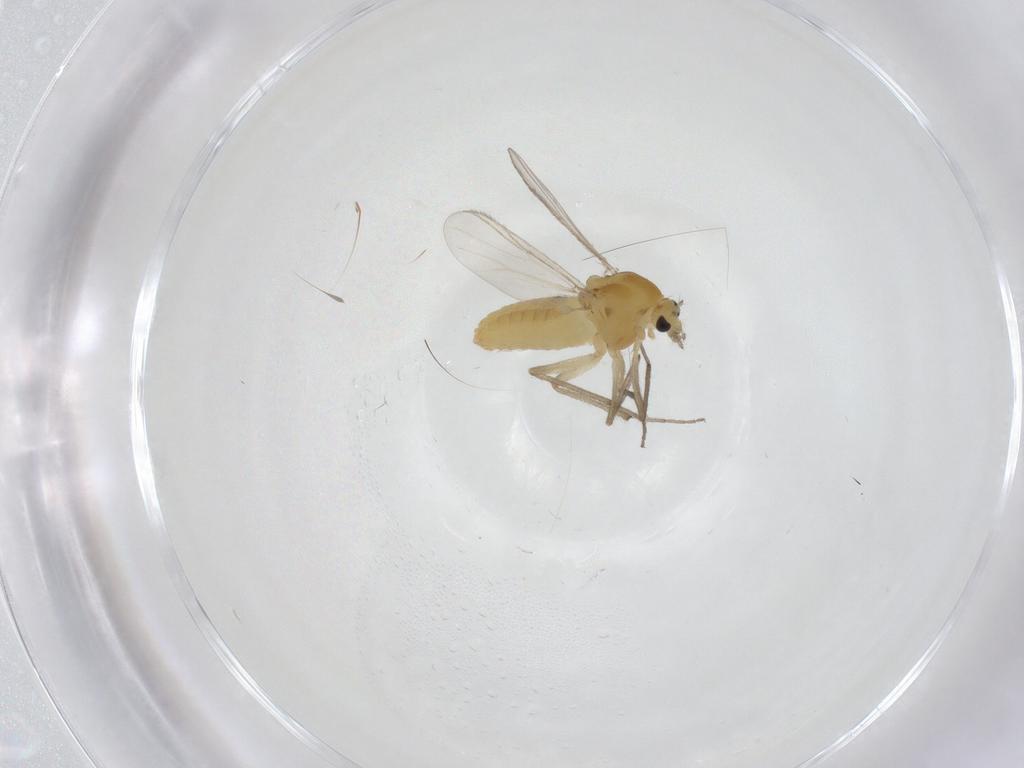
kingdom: Animalia
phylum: Arthropoda
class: Insecta
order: Diptera
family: Chironomidae
